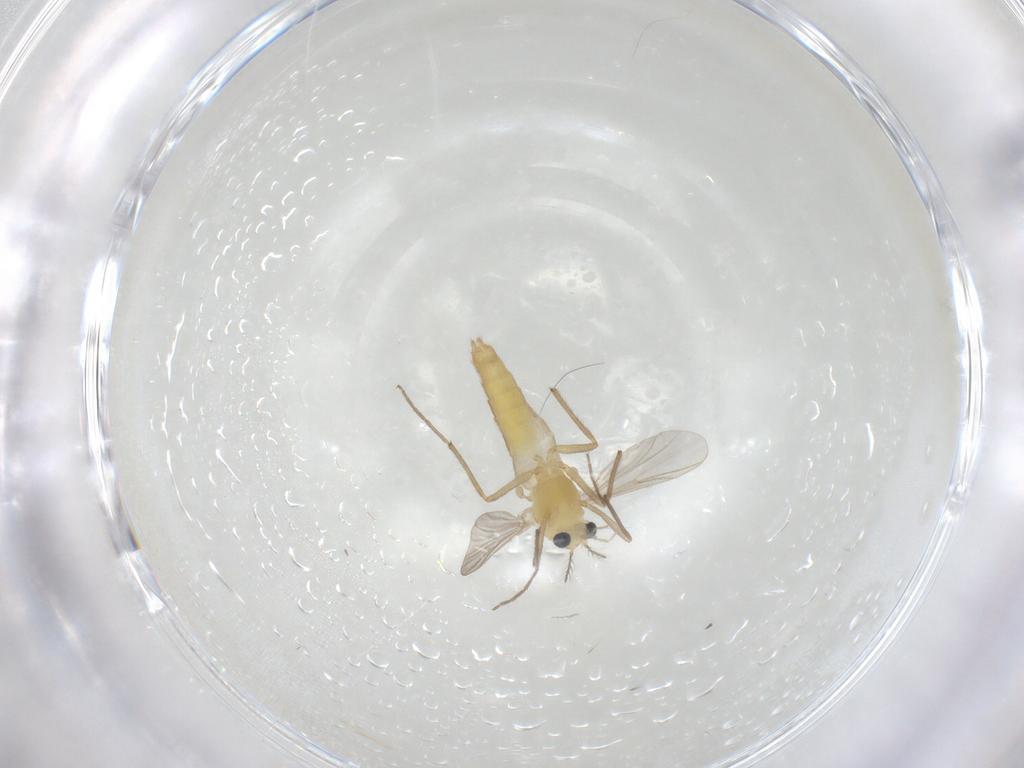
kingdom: Animalia
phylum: Arthropoda
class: Insecta
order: Diptera
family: Chironomidae
